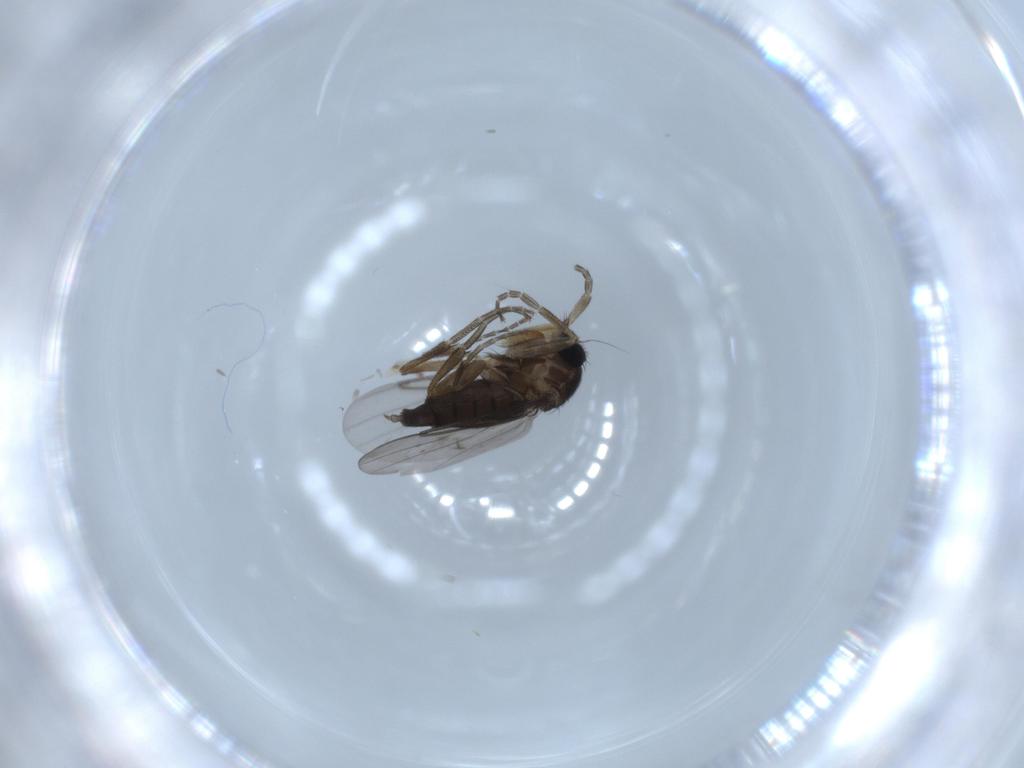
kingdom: Animalia
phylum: Arthropoda
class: Insecta
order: Diptera
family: Phoridae
